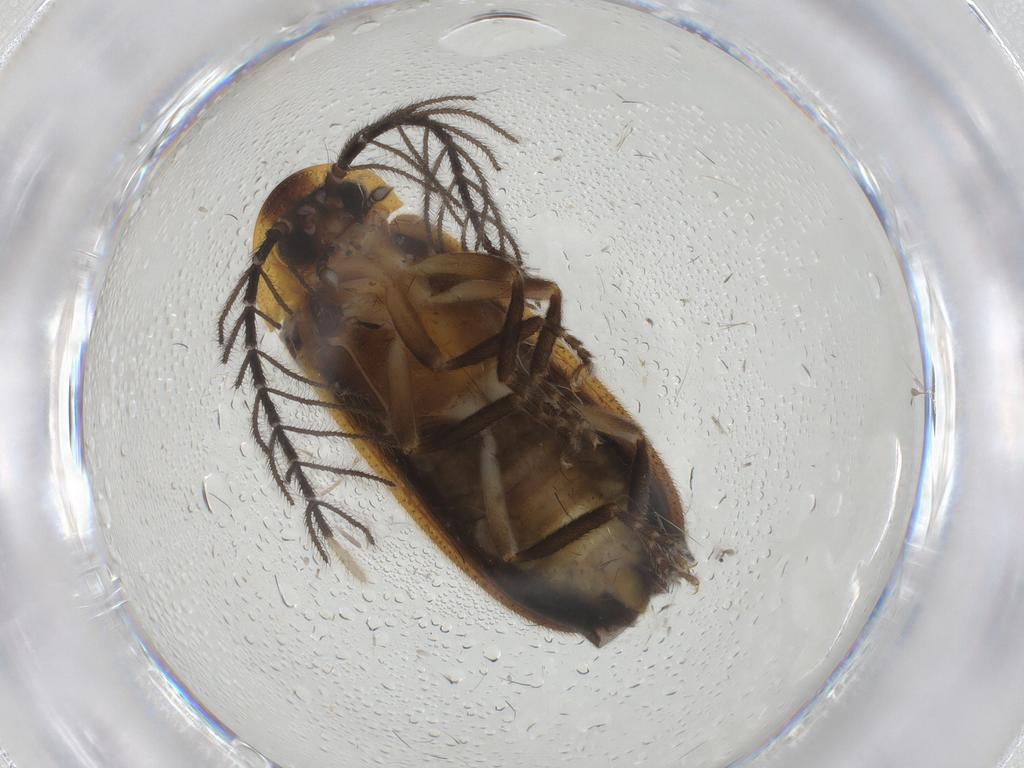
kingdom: Animalia
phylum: Arthropoda
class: Insecta
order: Coleoptera
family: Lampyridae
